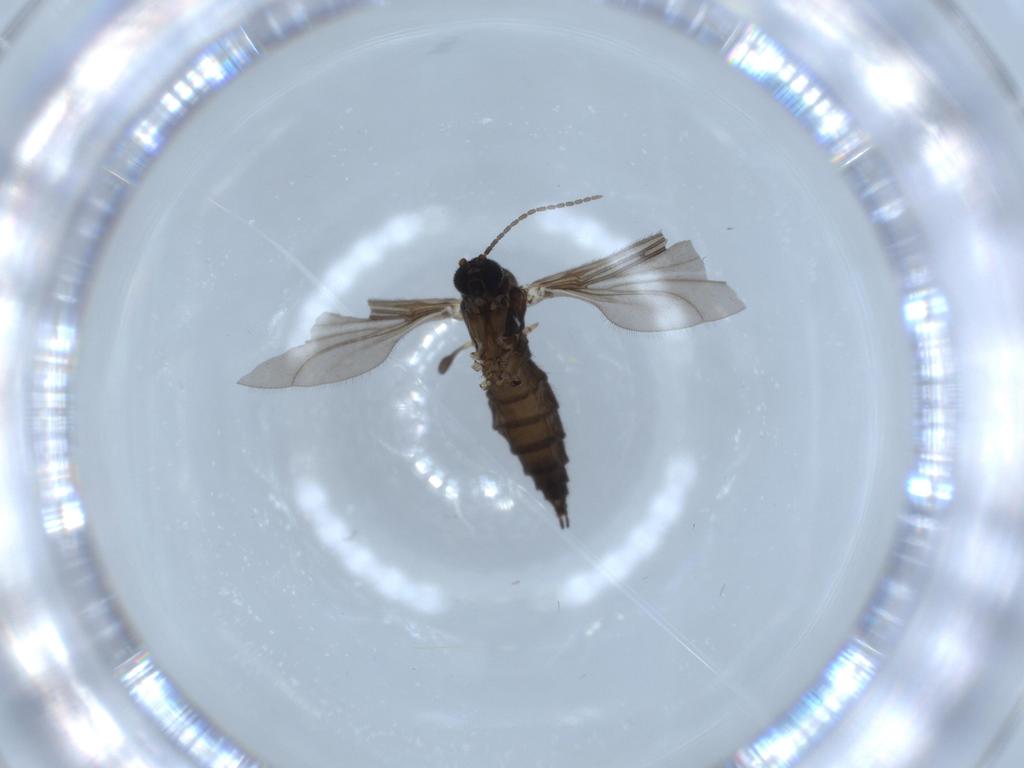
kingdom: Animalia
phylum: Arthropoda
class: Insecta
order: Diptera
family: Sciaridae
